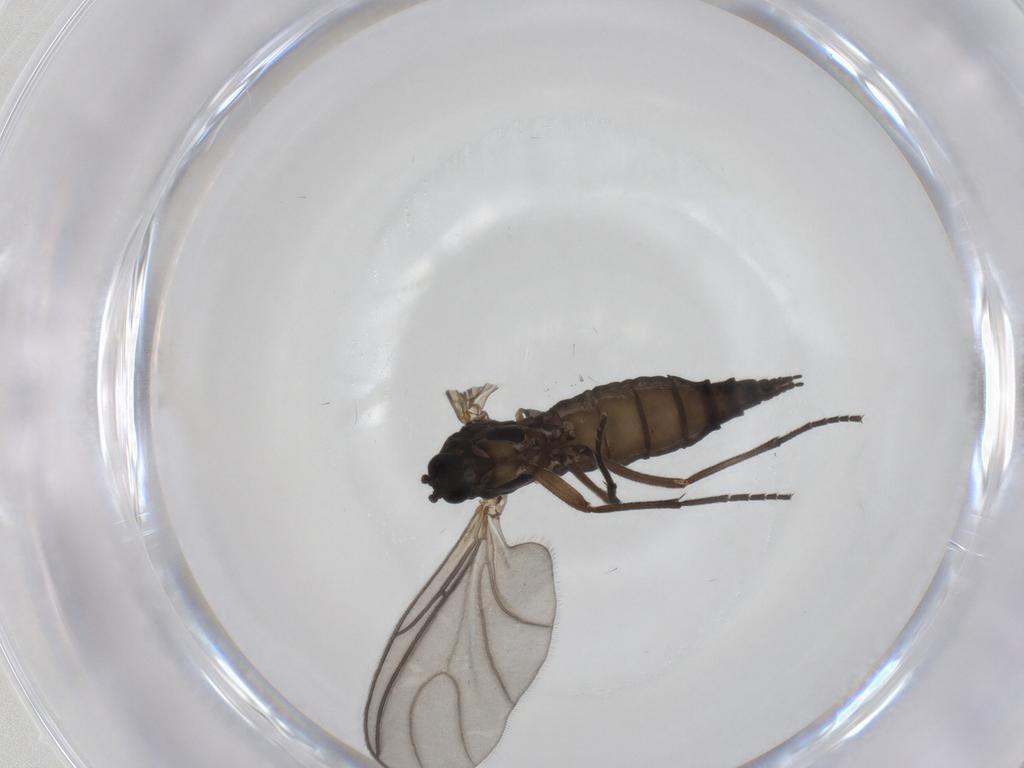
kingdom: Animalia
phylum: Arthropoda
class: Insecta
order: Diptera
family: Sciaridae
